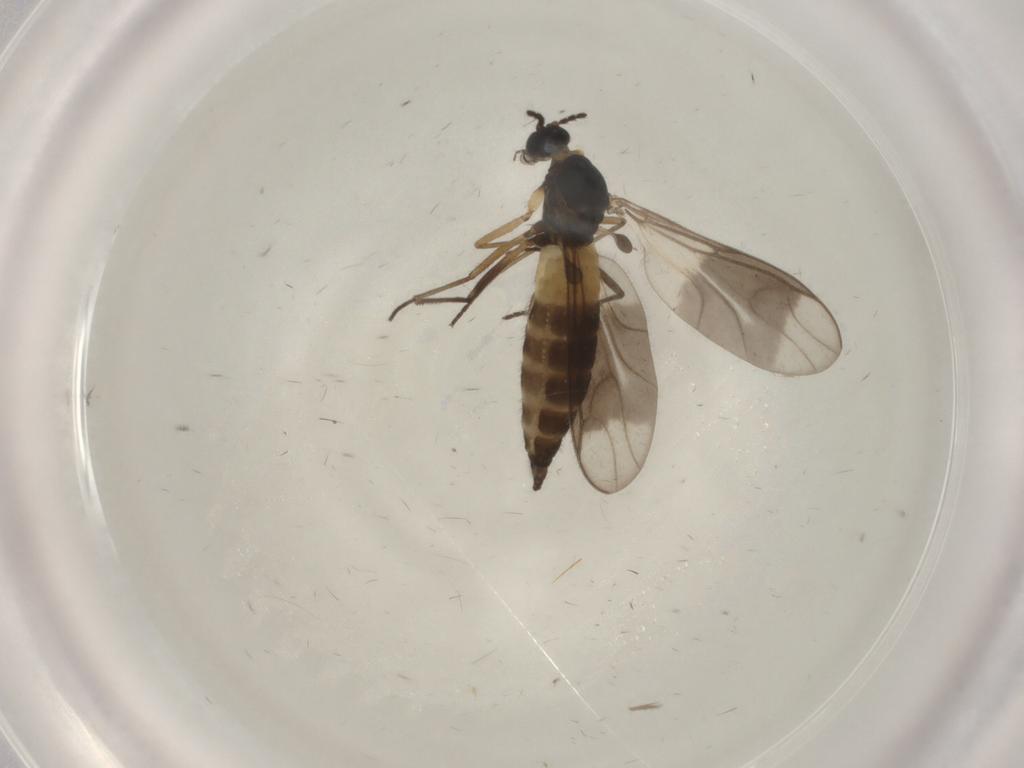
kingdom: Animalia
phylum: Arthropoda
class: Insecta
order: Diptera
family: Sciaridae
